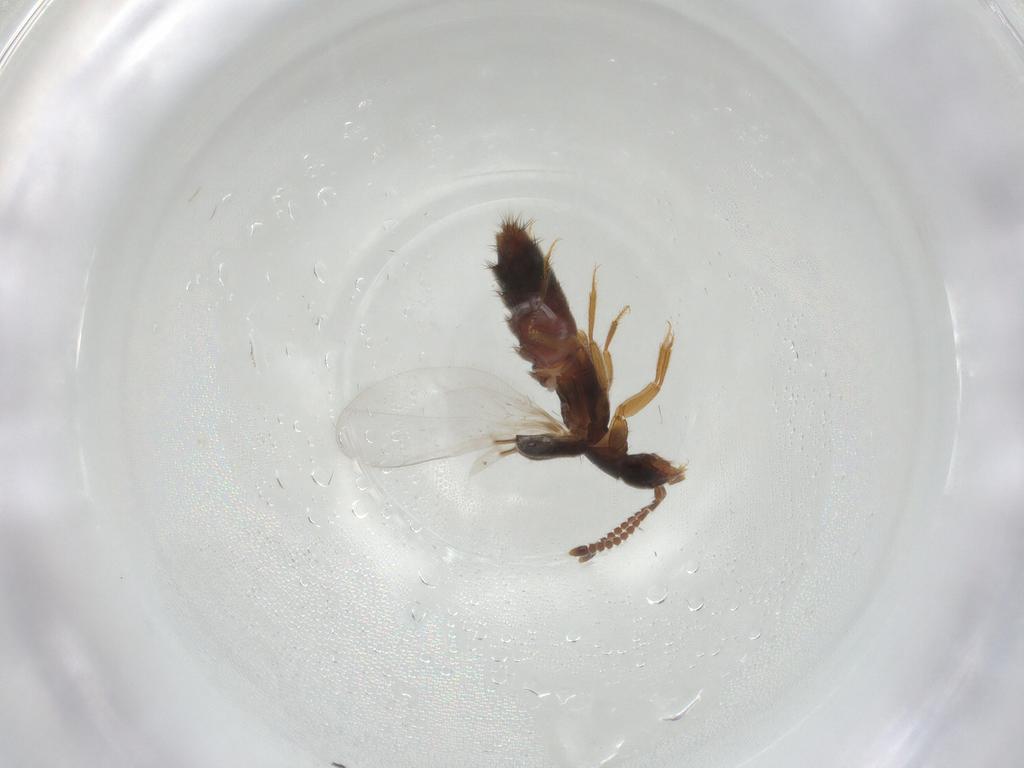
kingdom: Animalia
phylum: Arthropoda
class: Insecta
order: Coleoptera
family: Staphylinidae
